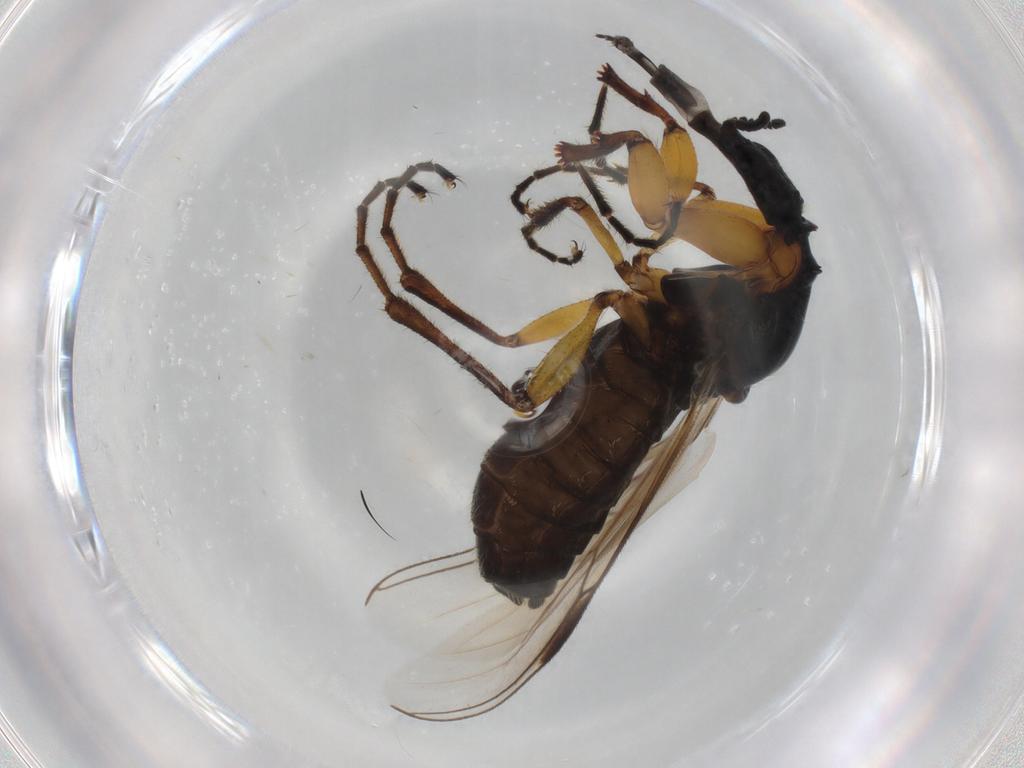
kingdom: Animalia
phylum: Arthropoda
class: Insecta
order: Diptera
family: Bibionidae
